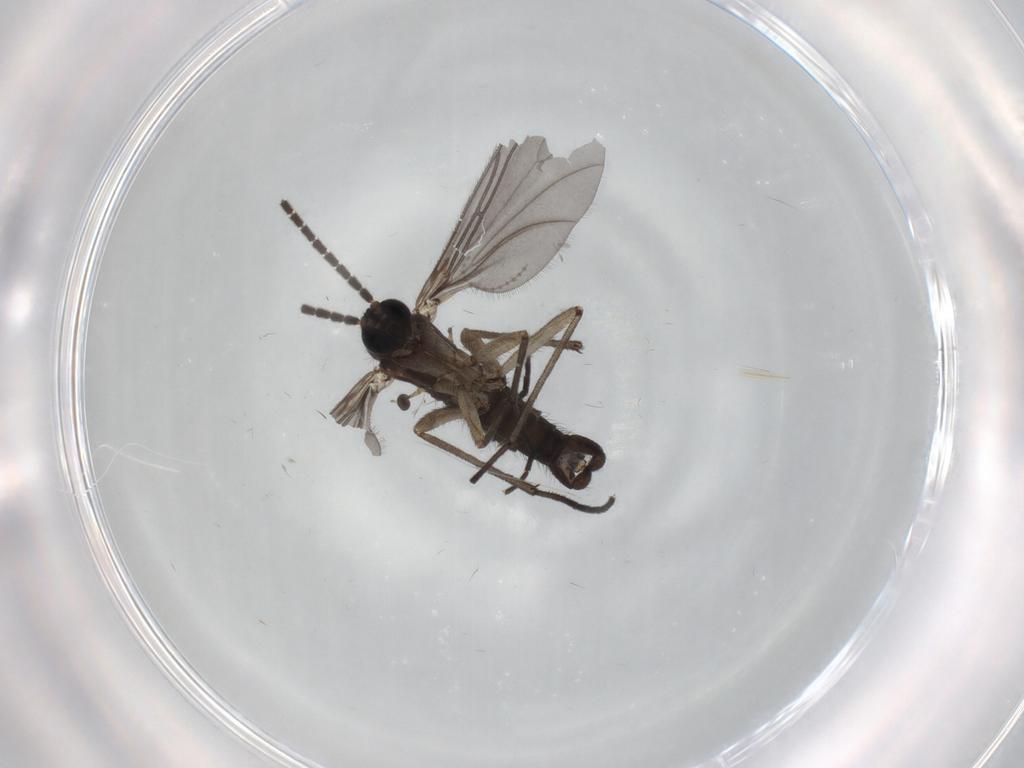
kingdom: Animalia
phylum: Arthropoda
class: Insecta
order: Diptera
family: Sciaridae
